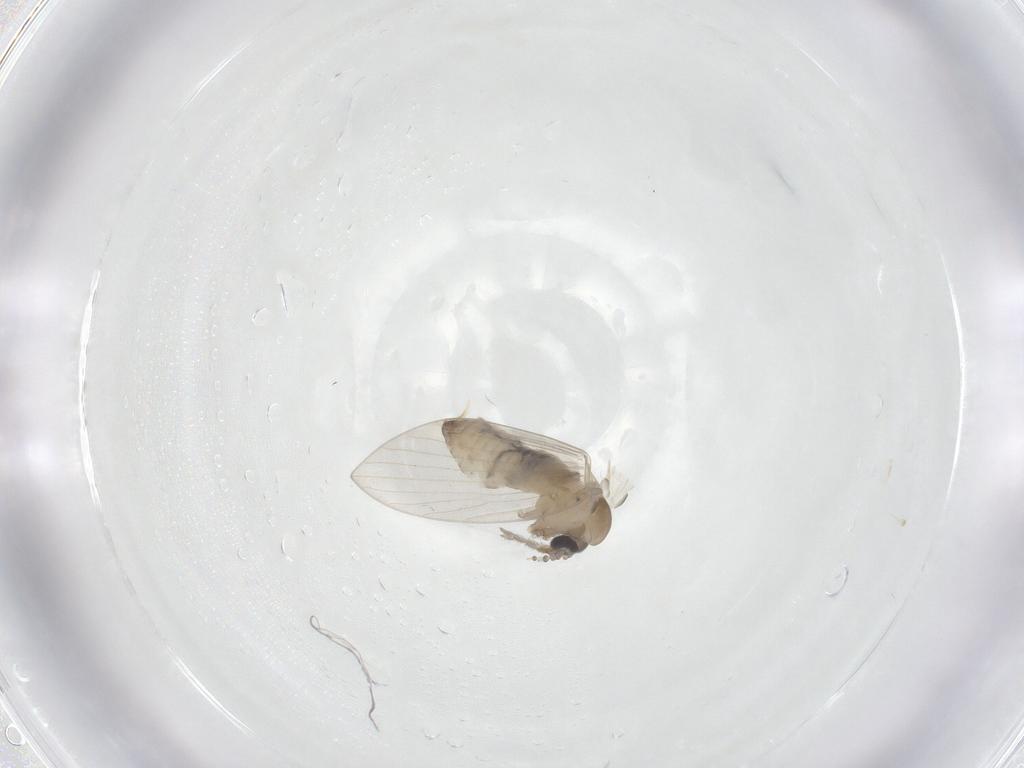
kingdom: Animalia
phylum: Arthropoda
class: Insecta
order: Diptera
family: Psychodidae
